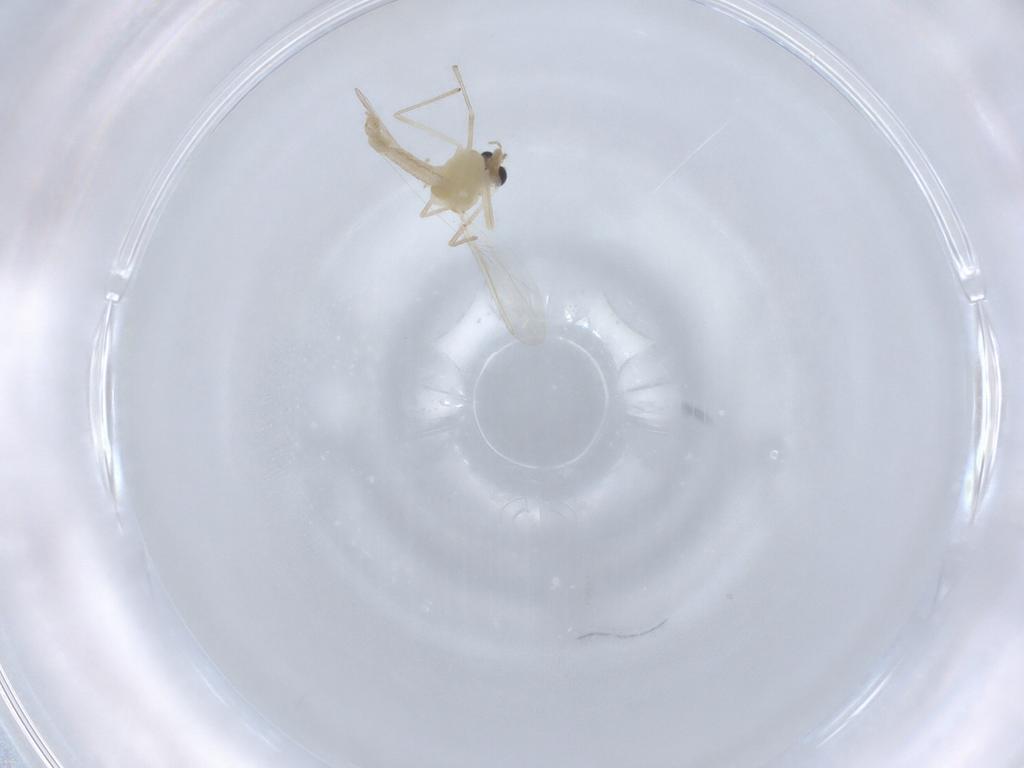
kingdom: Animalia
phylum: Arthropoda
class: Insecta
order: Diptera
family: Chironomidae
